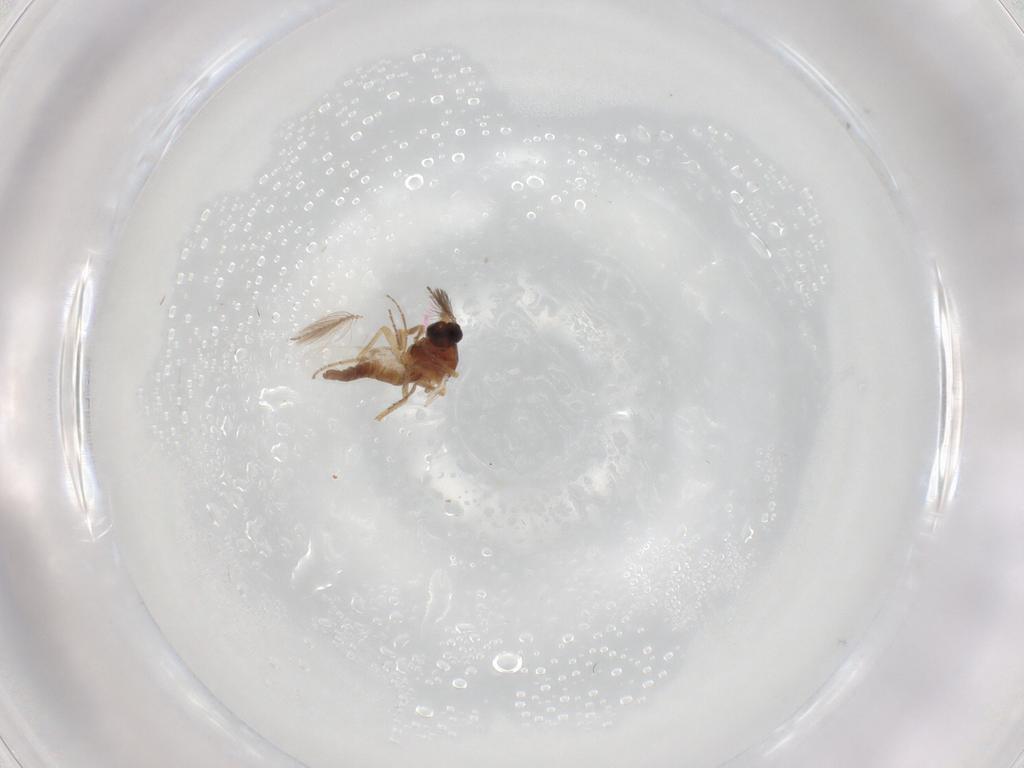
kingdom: Animalia
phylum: Arthropoda
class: Insecta
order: Diptera
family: Ceratopogonidae
